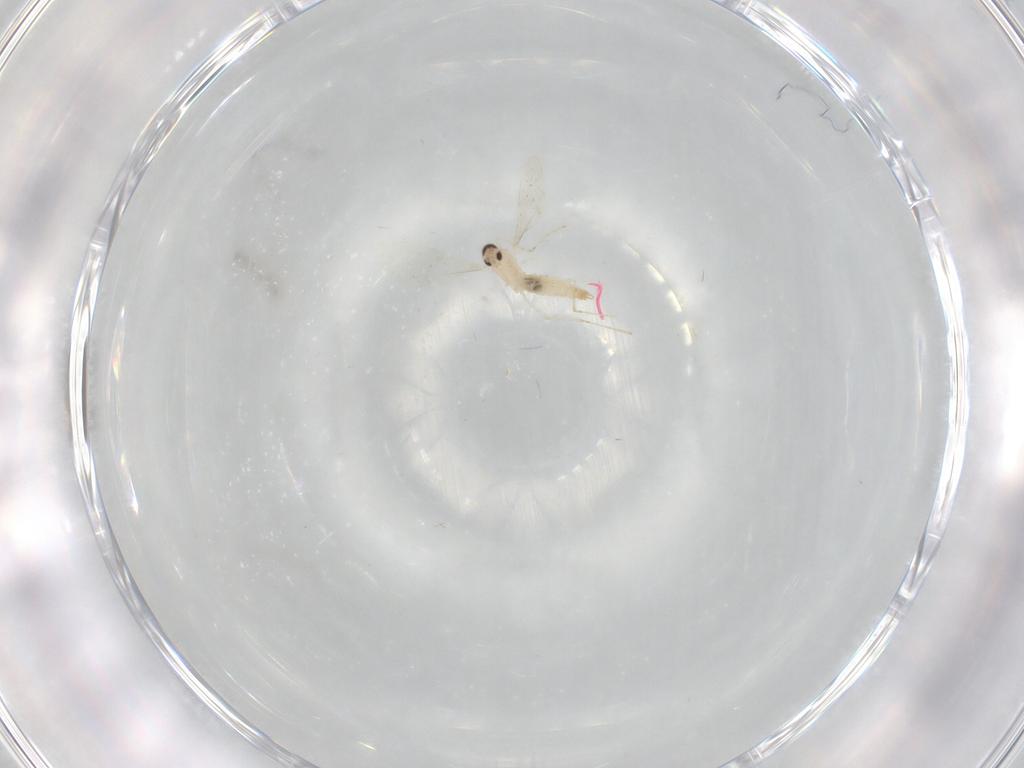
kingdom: Animalia
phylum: Arthropoda
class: Insecta
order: Diptera
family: Cecidomyiidae
